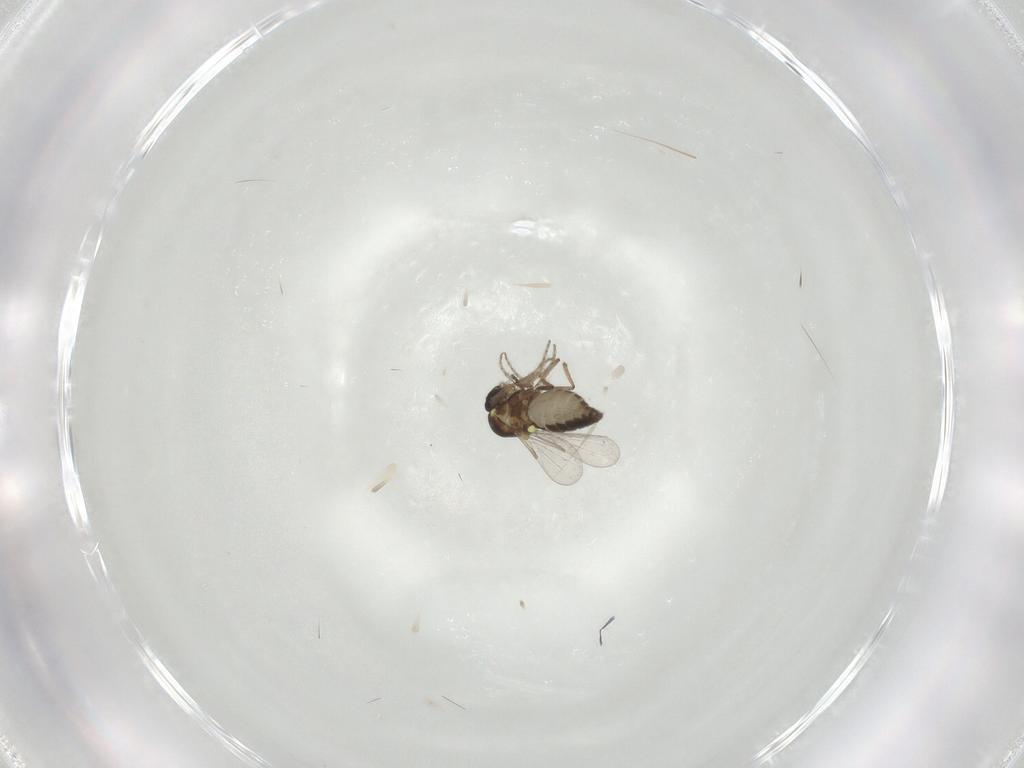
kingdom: Animalia
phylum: Arthropoda
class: Insecta
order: Diptera
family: Ceratopogonidae
